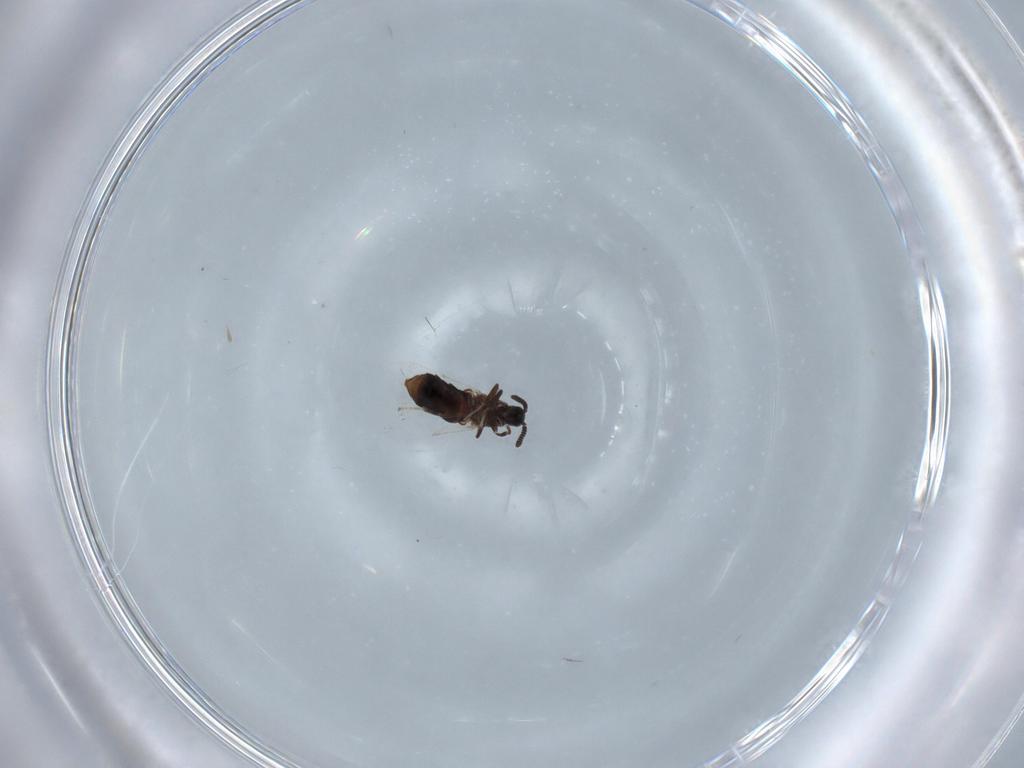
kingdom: Animalia
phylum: Arthropoda
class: Insecta
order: Diptera
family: Scatopsidae
